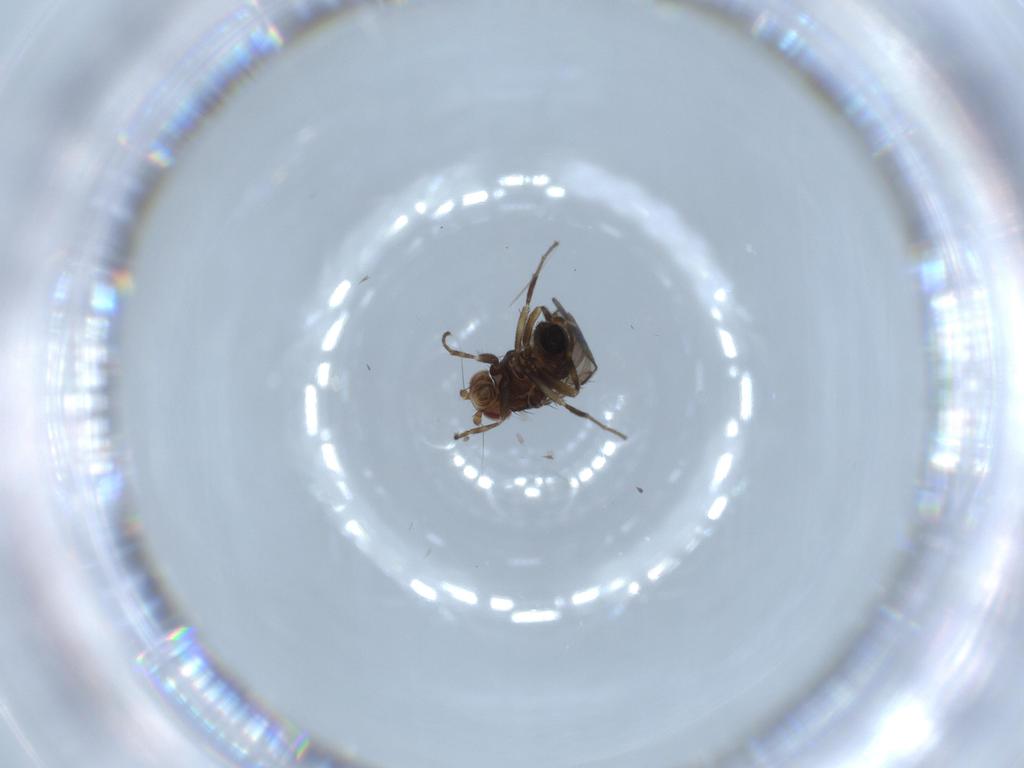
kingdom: Animalia
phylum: Arthropoda
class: Insecta
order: Diptera
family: Sphaeroceridae
